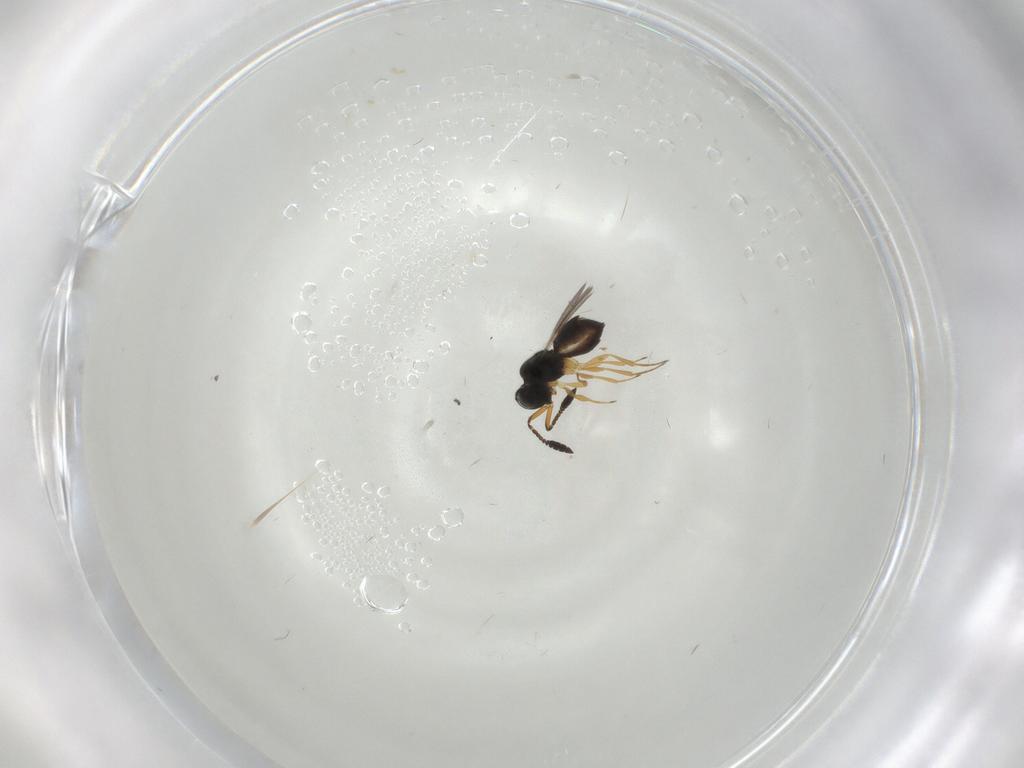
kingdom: Animalia
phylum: Arthropoda
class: Insecta
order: Hymenoptera
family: Scelionidae
